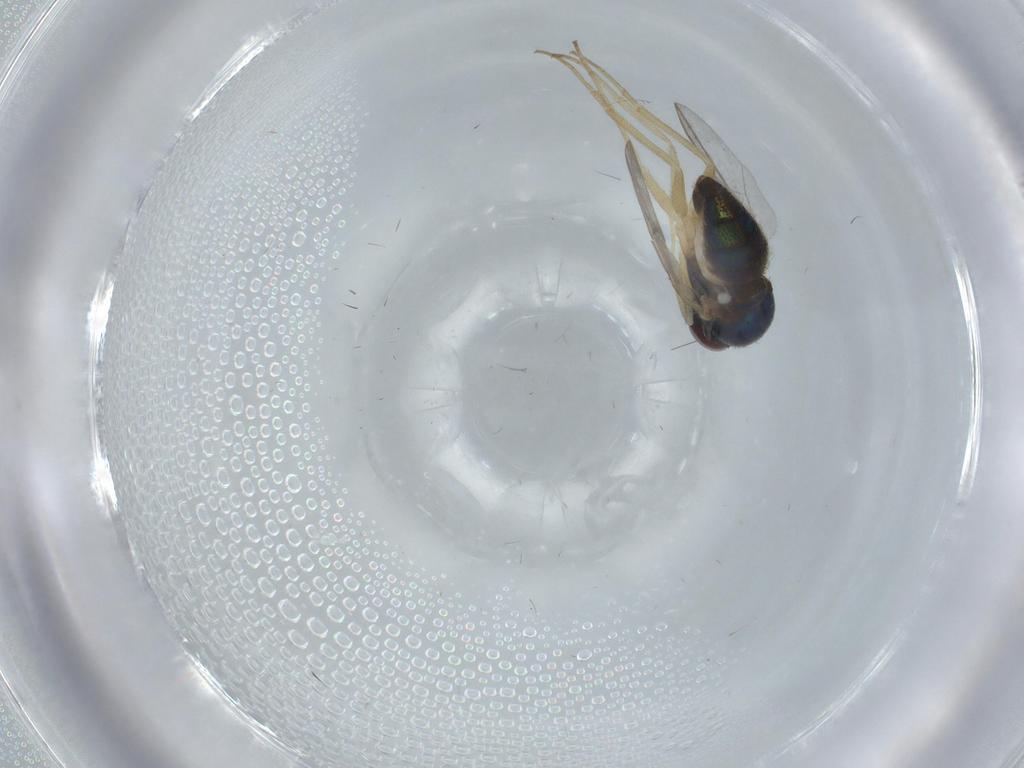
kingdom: Animalia
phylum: Arthropoda
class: Insecta
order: Diptera
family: Dolichopodidae
